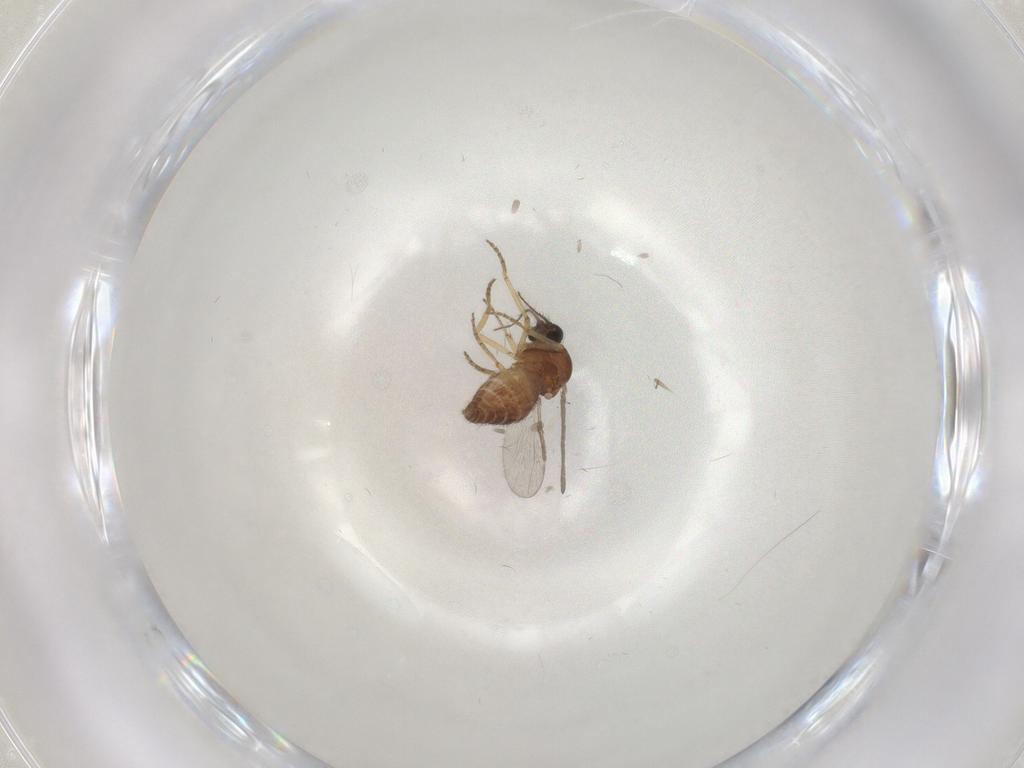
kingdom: Animalia
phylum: Arthropoda
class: Insecta
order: Diptera
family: Ceratopogonidae
